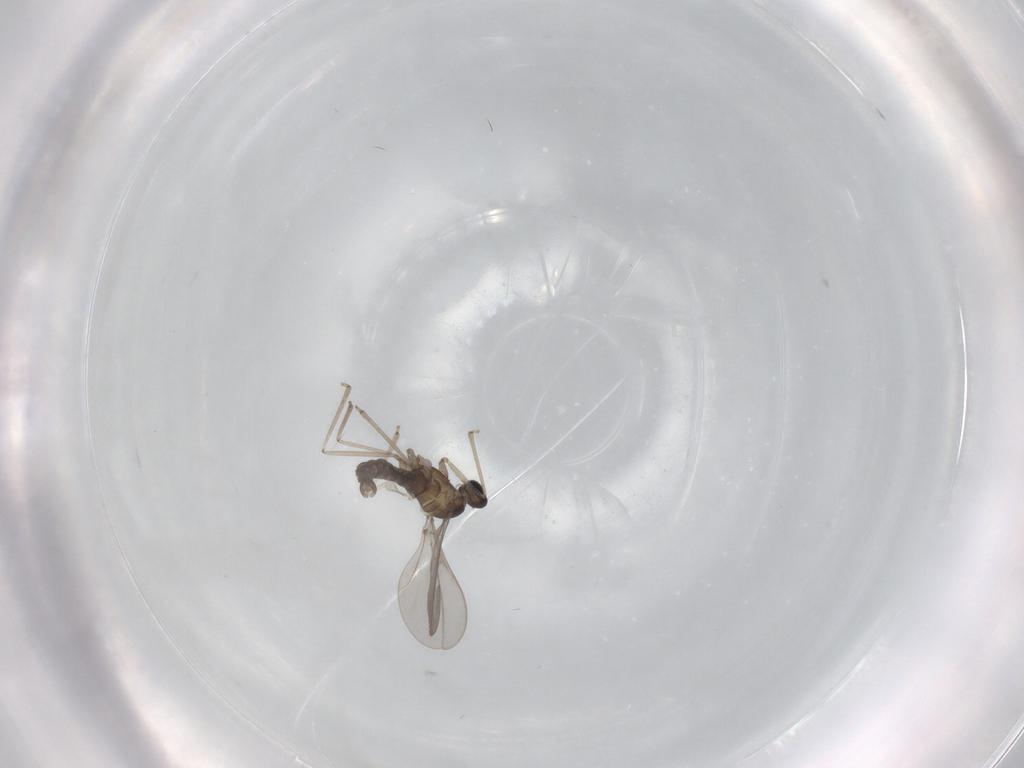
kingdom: Animalia
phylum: Arthropoda
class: Insecta
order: Diptera
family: Cecidomyiidae
